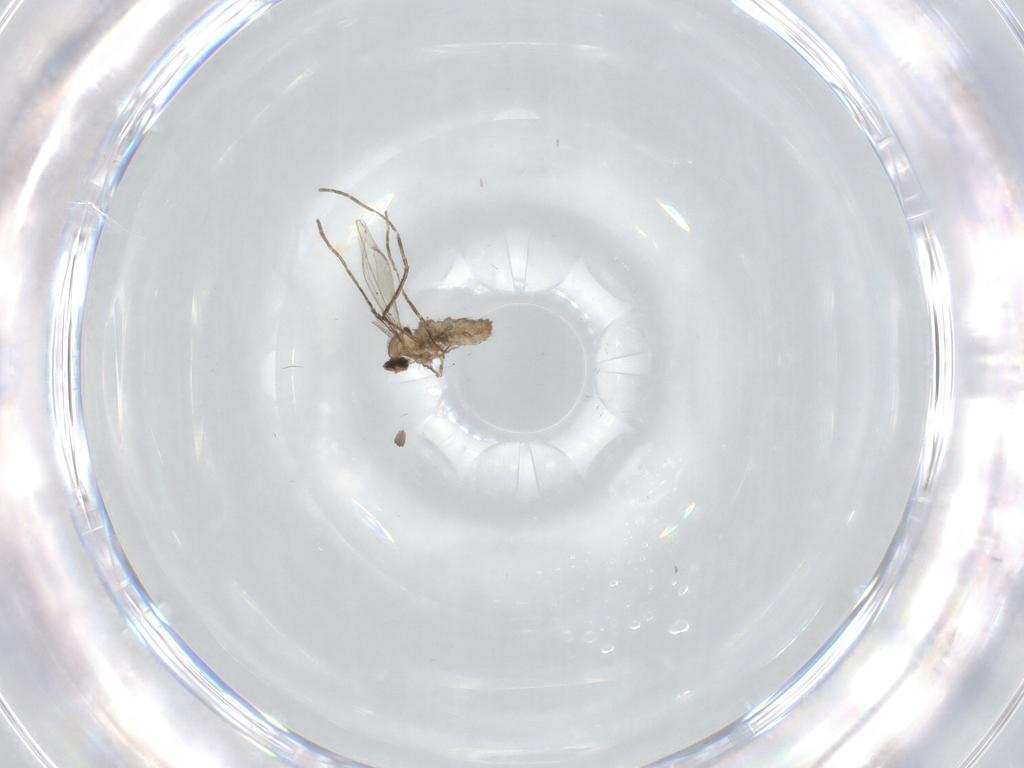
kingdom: Animalia
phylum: Arthropoda
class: Insecta
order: Diptera
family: Cecidomyiidae
